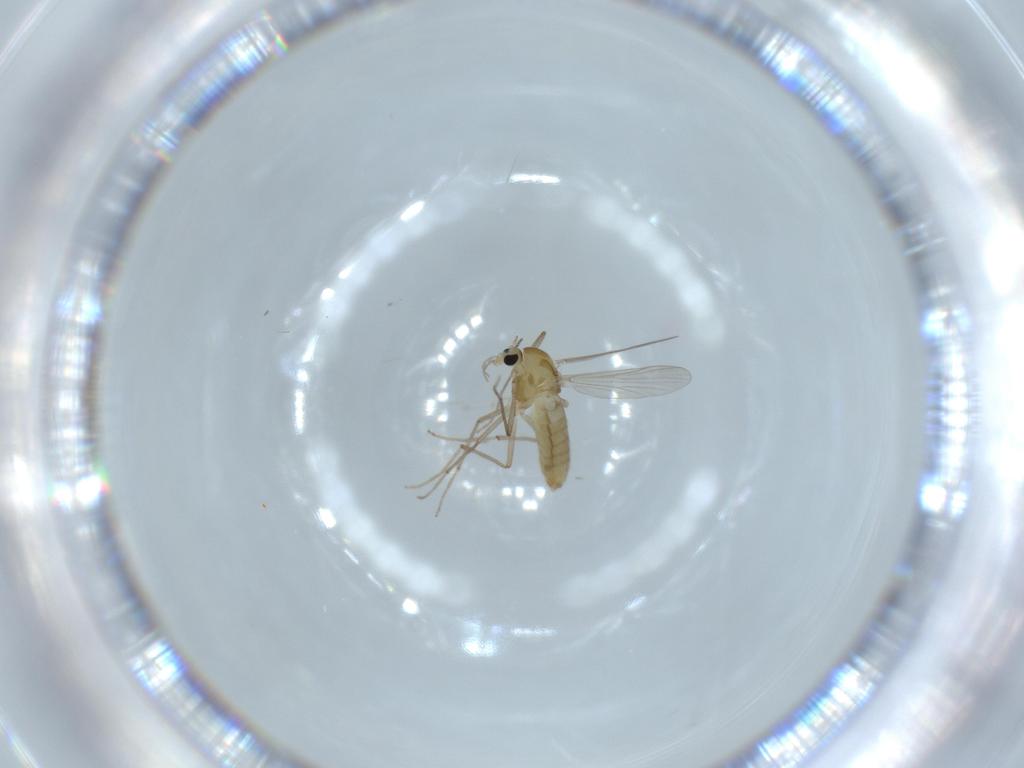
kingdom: Animalia
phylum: Arthropoda
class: Insecta
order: Diptera
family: Chironomidae
